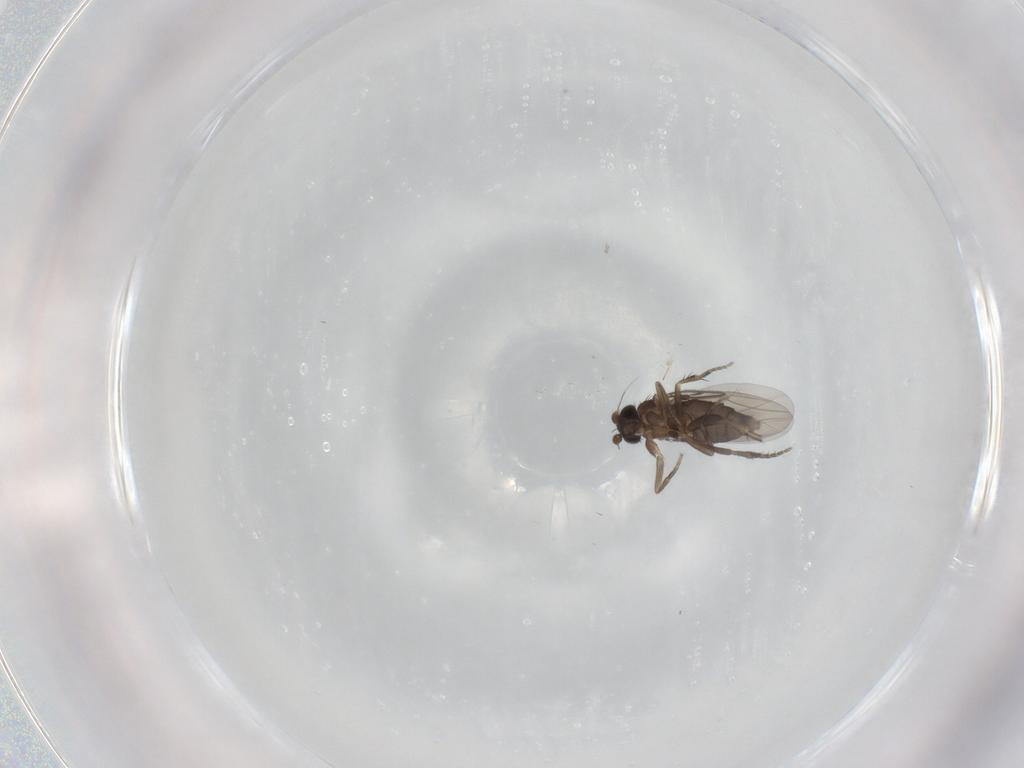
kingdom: Animalia
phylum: Arthropoda
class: Insecta
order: Diptera
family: Phoridae
